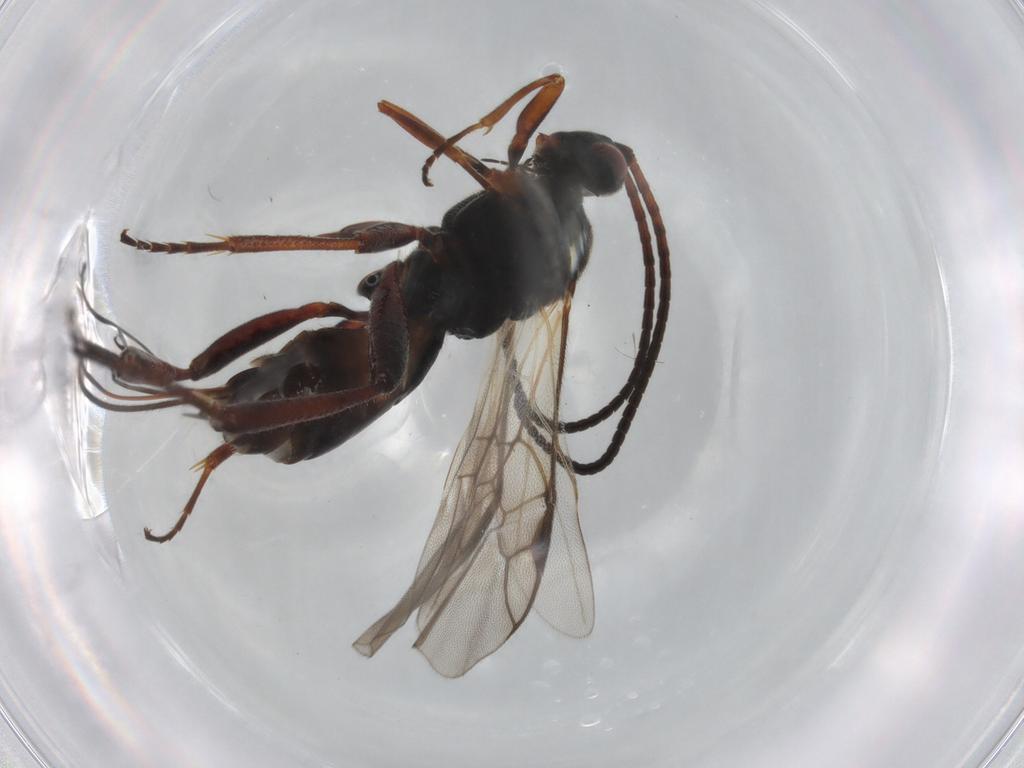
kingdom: Animalia
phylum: Arthropoda
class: Insecta
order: Hymenoptera
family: Braconidae
